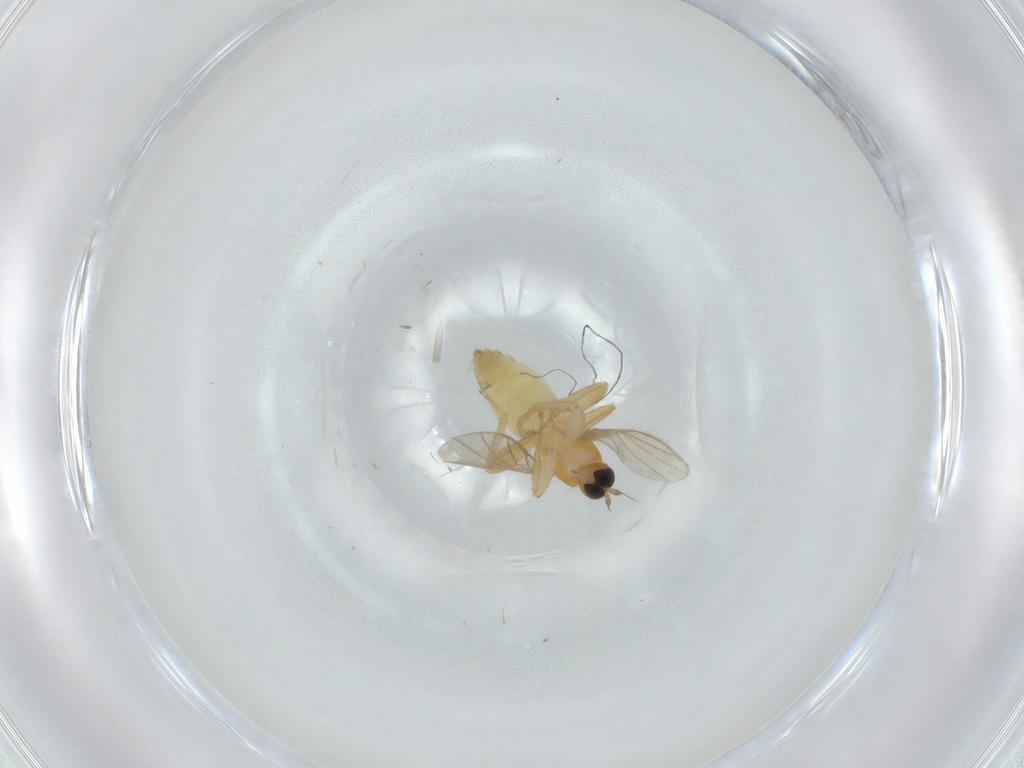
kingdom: Animalia
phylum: Arthropoda
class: Insecta
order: Diptera
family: Hybotidae
